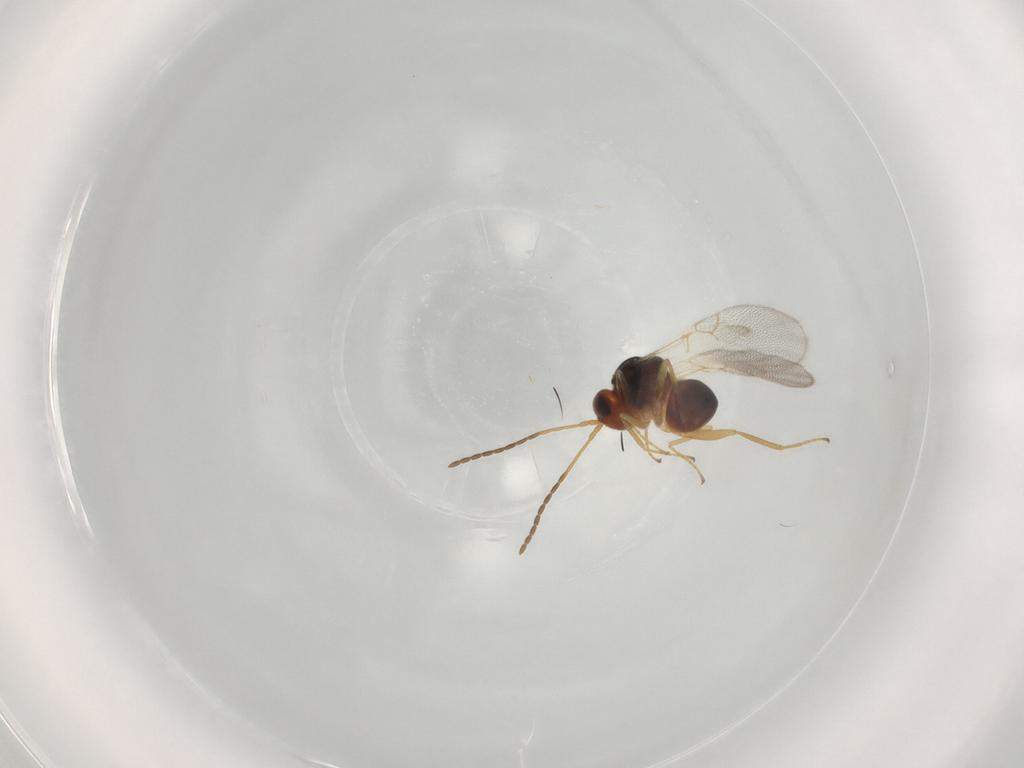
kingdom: Animalia
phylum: Arthropoda
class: Insecta
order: Hymenoptera
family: Figitidae
